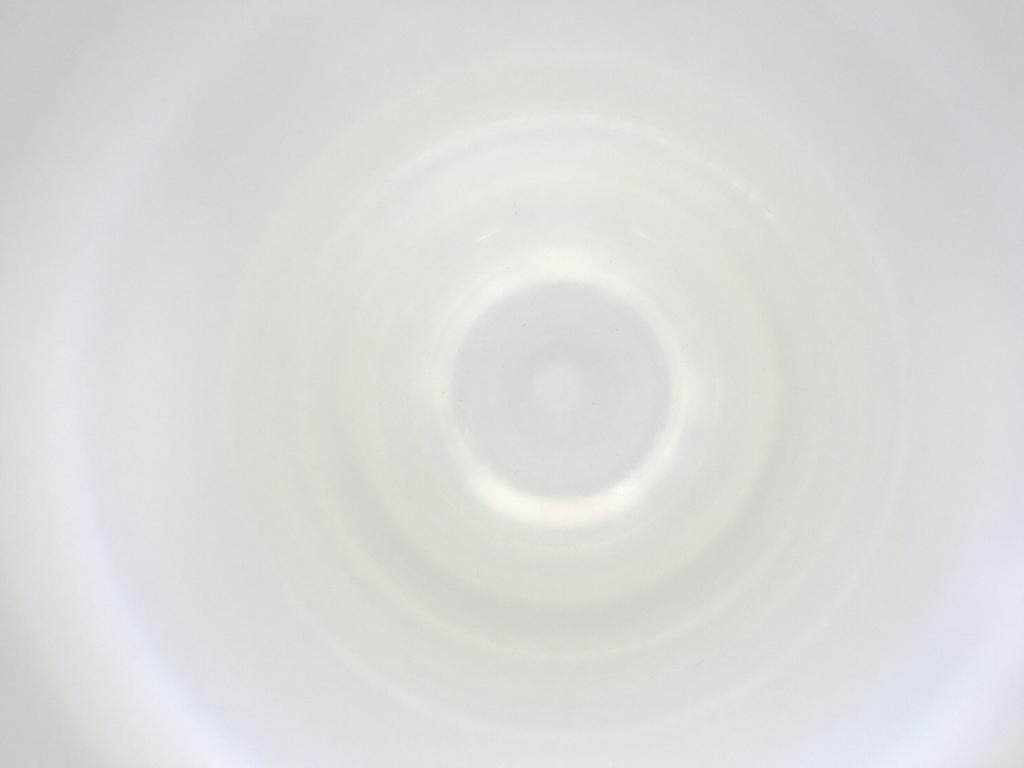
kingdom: Animalia
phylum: Arthropoda
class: Insecta
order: Diptera
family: Cecidomyiidae
